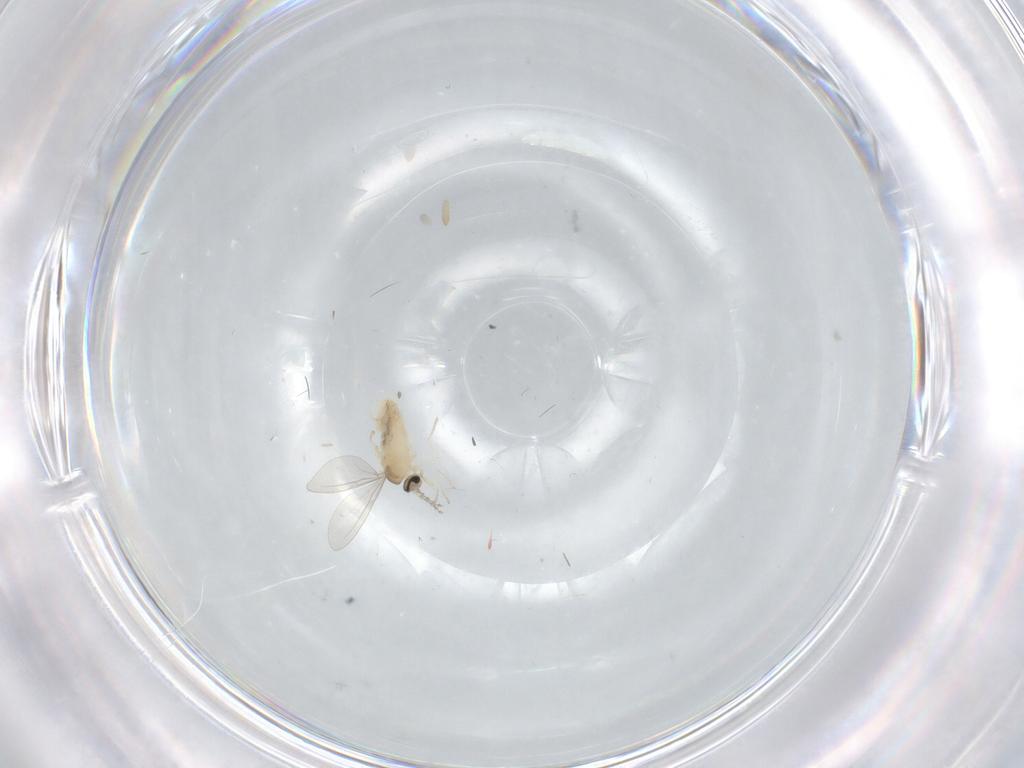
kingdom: Animalia
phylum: Arthropoda
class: Insecta
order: Diptera
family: Cecidomyiidae
